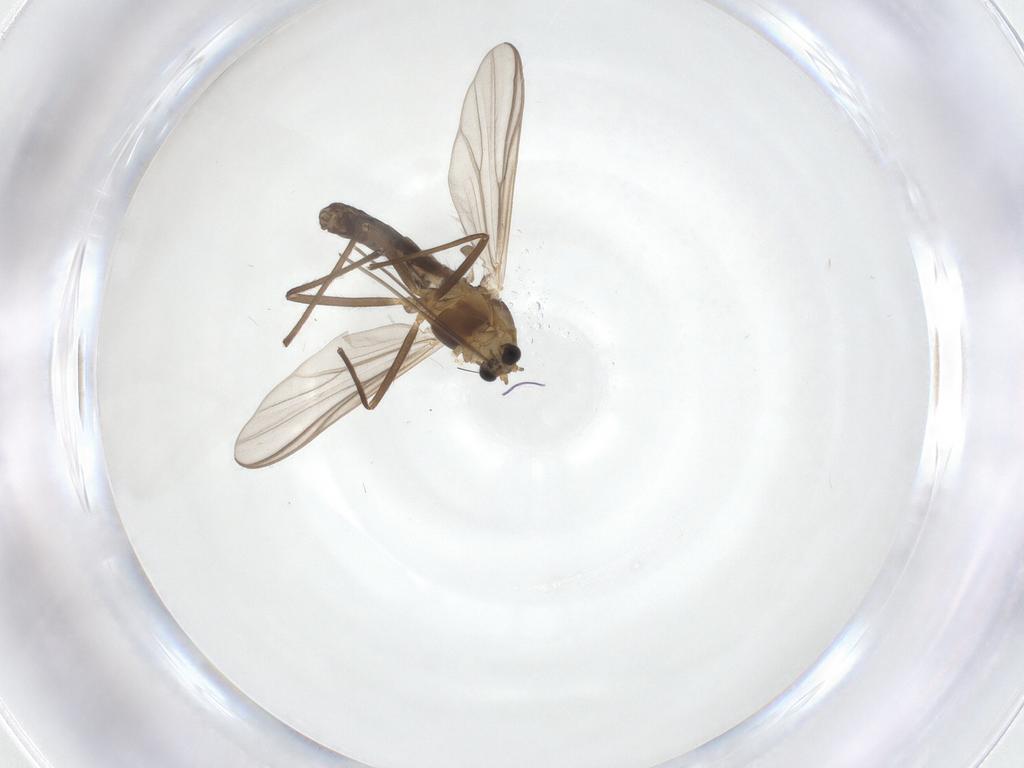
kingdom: Animalia
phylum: Arthropoda
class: Insecta
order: Diptera
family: Chironomidae
